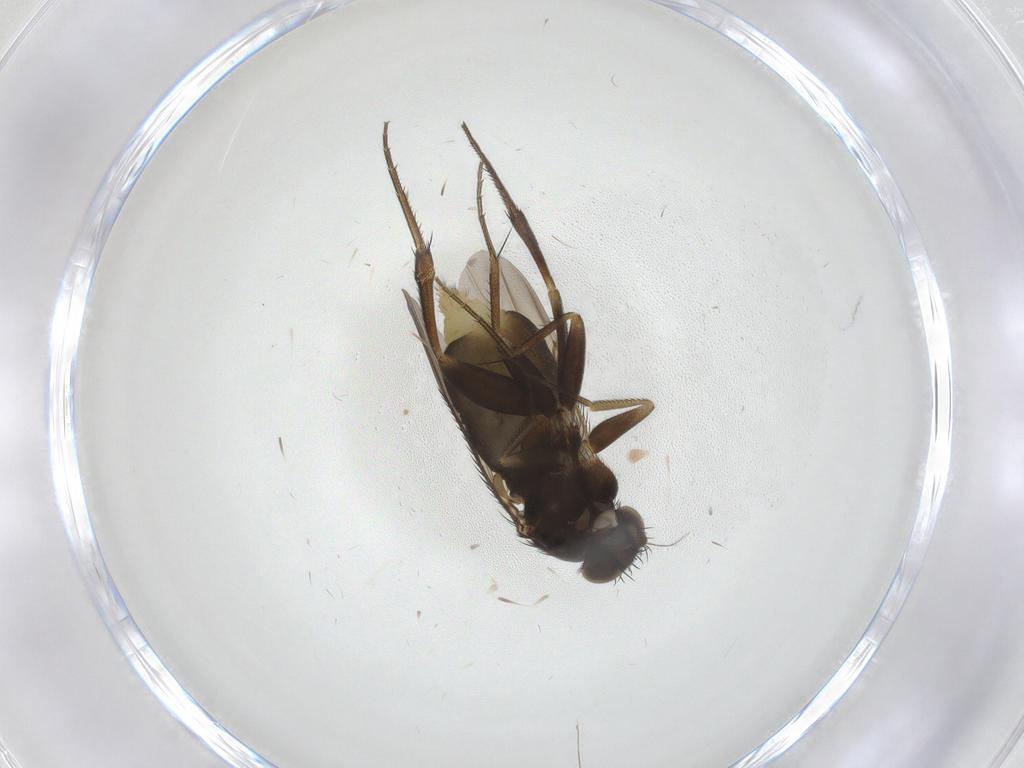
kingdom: Animalia
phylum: Arthropoda
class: Insecta
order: Diptera
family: Phoridae
